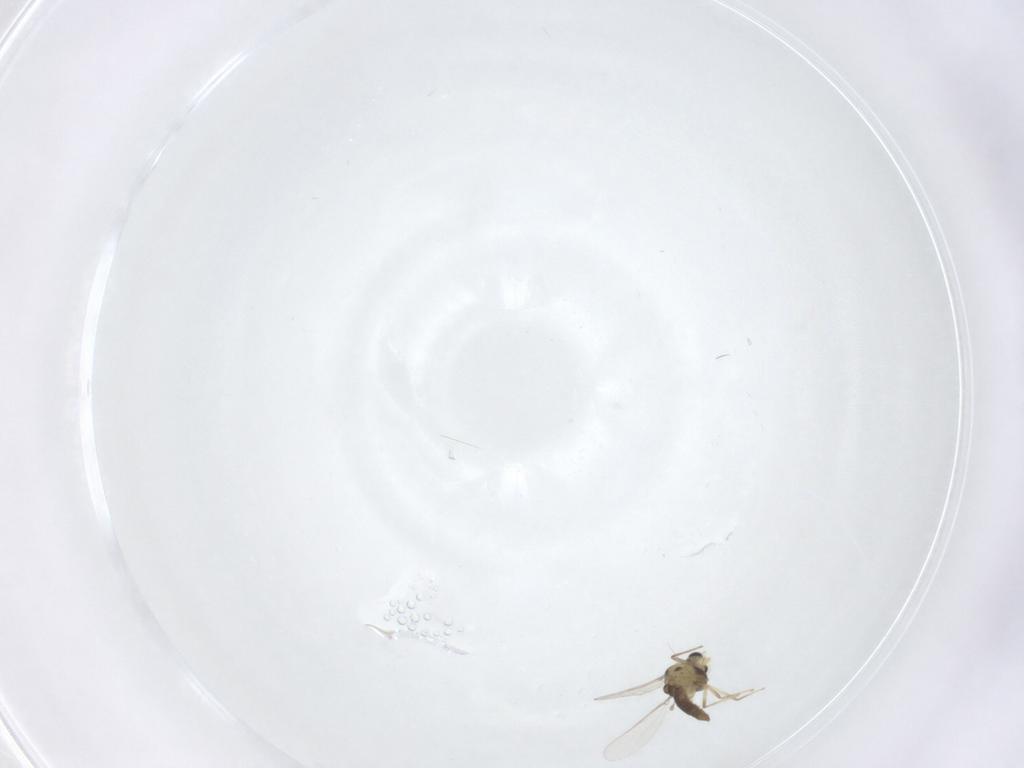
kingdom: Animalia
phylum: Arthropoda
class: Insecta
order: Diptera
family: Chironomidae
